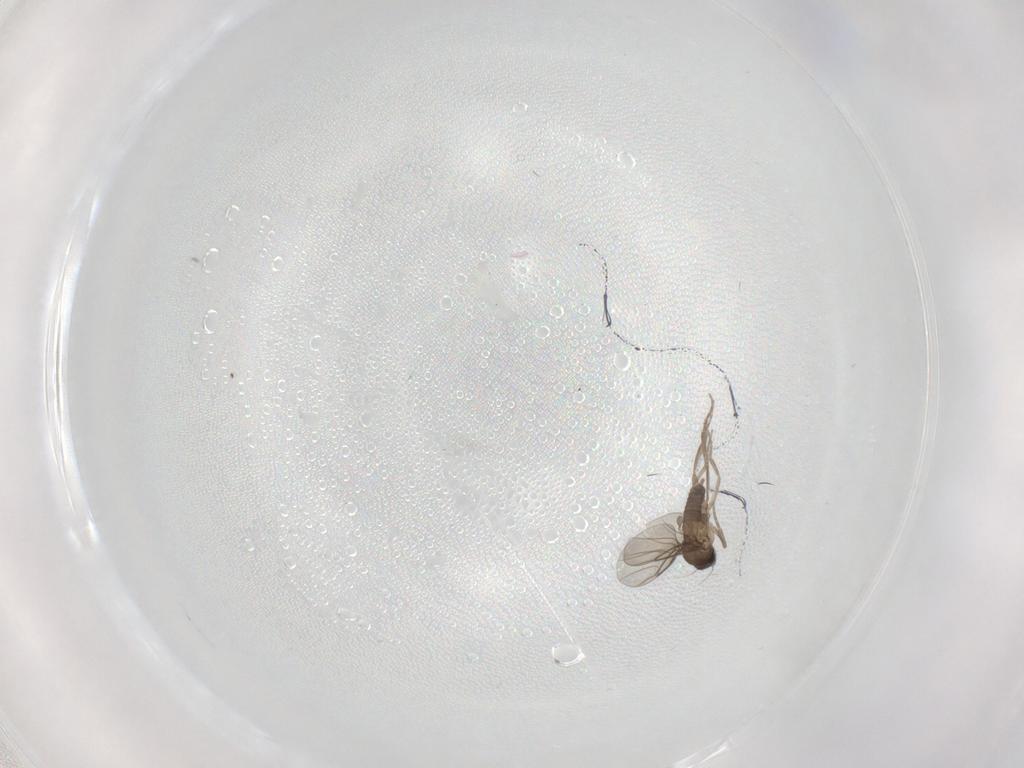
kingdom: Animalia
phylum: Arthropoda
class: Insecta
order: Diptera
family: Phoridae
